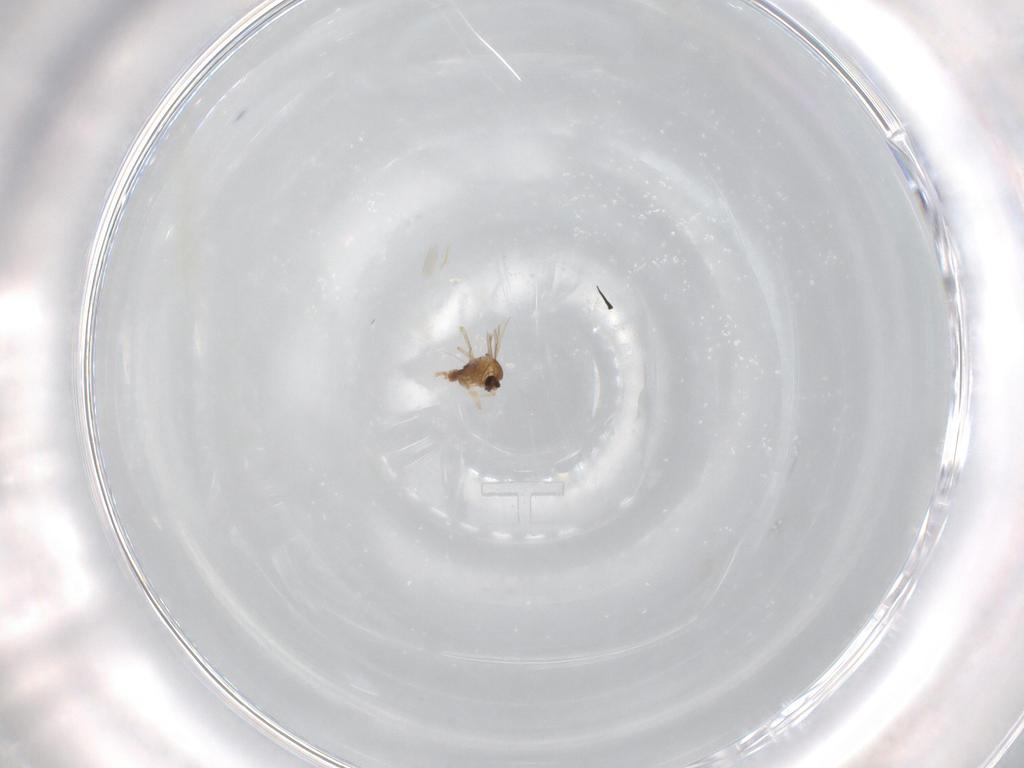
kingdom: Animalia
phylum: Arthropoda
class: Insecta
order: Diptera
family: Cecidomyiidae
